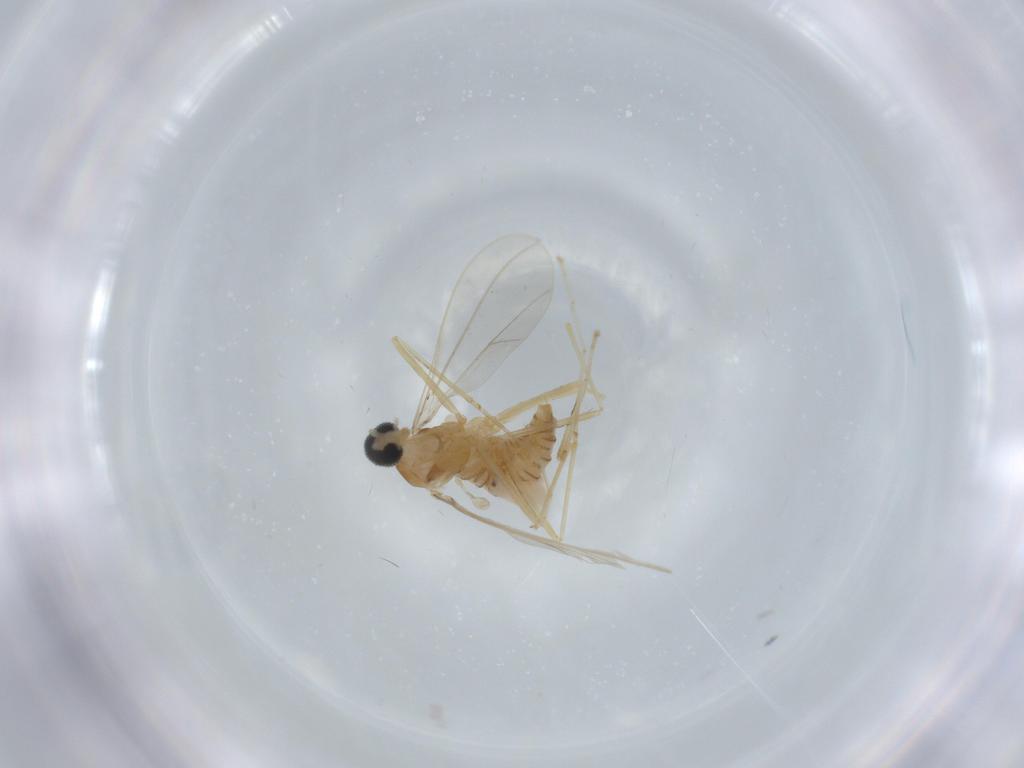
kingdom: Animalia
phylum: Arthropoda
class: Insecta
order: Diptera
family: Cecidomyiidae
